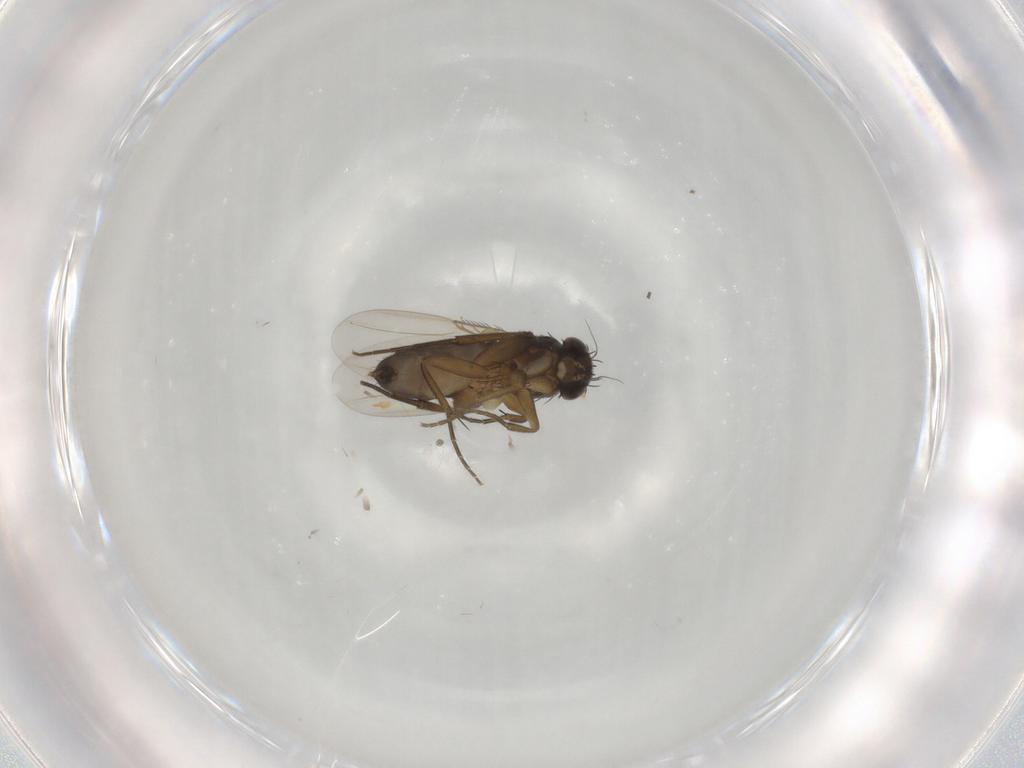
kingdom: Animalia
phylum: Arthropoda
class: Insecta
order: Diptera
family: Phoridae
